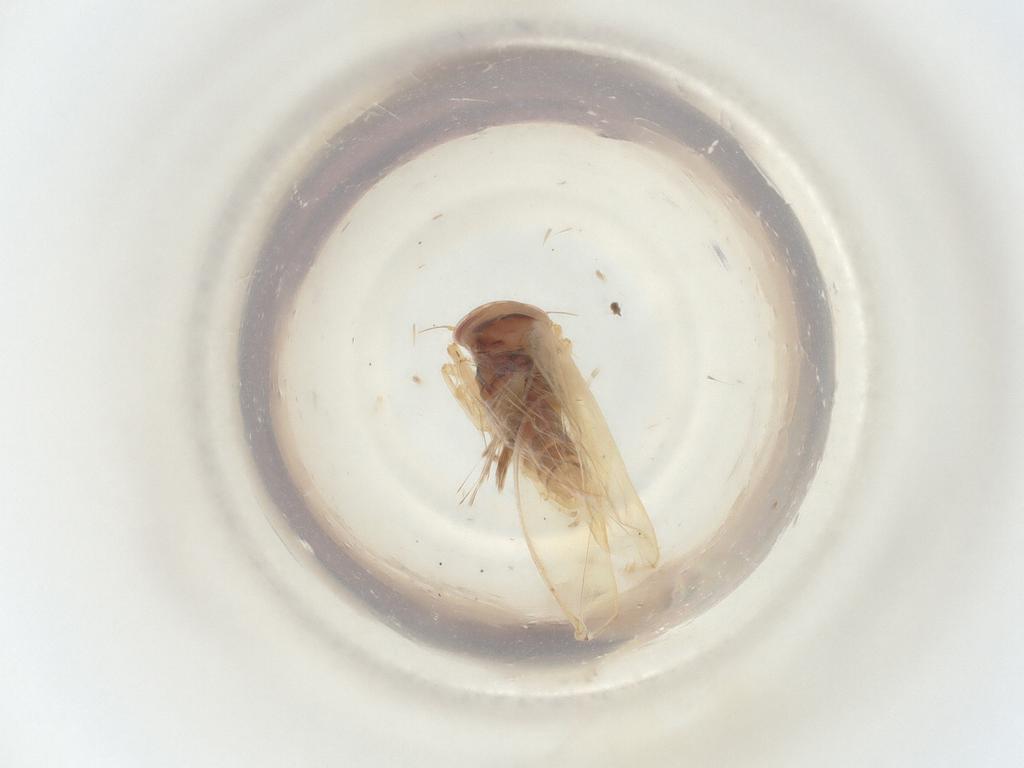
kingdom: Animalia
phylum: Arthropoda
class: Insecta
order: Hemiptera
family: Cicadellidae
